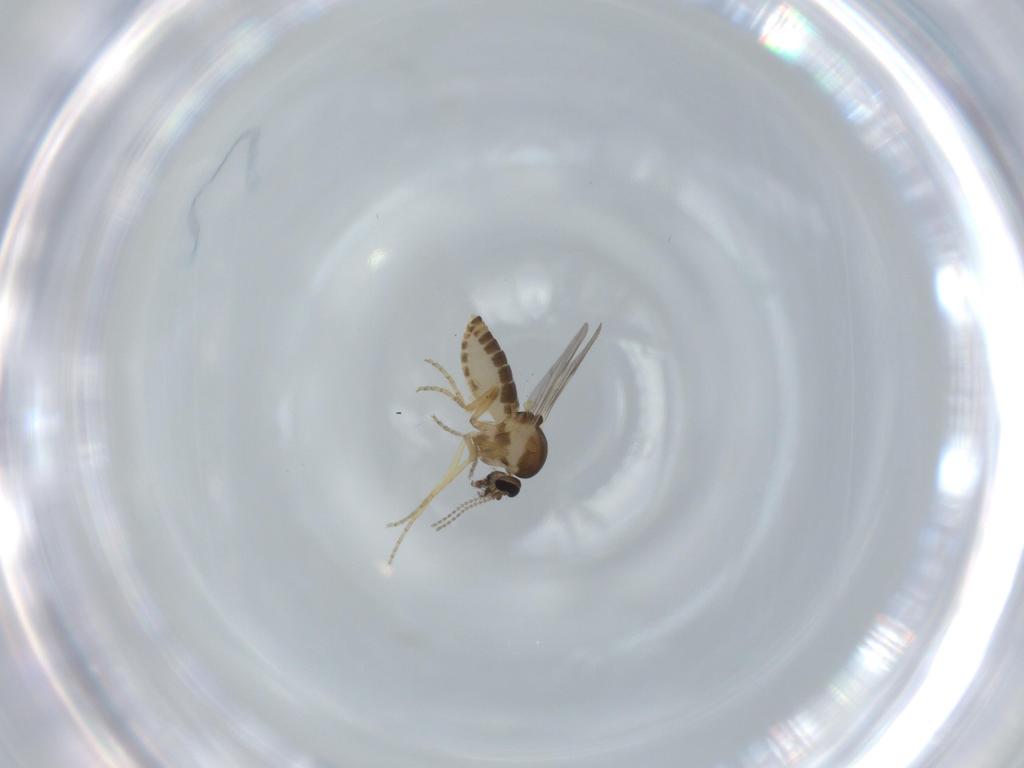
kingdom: Animalia
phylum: Arthropoda
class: Insecta
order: Diptera
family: Ceratopogonidae
